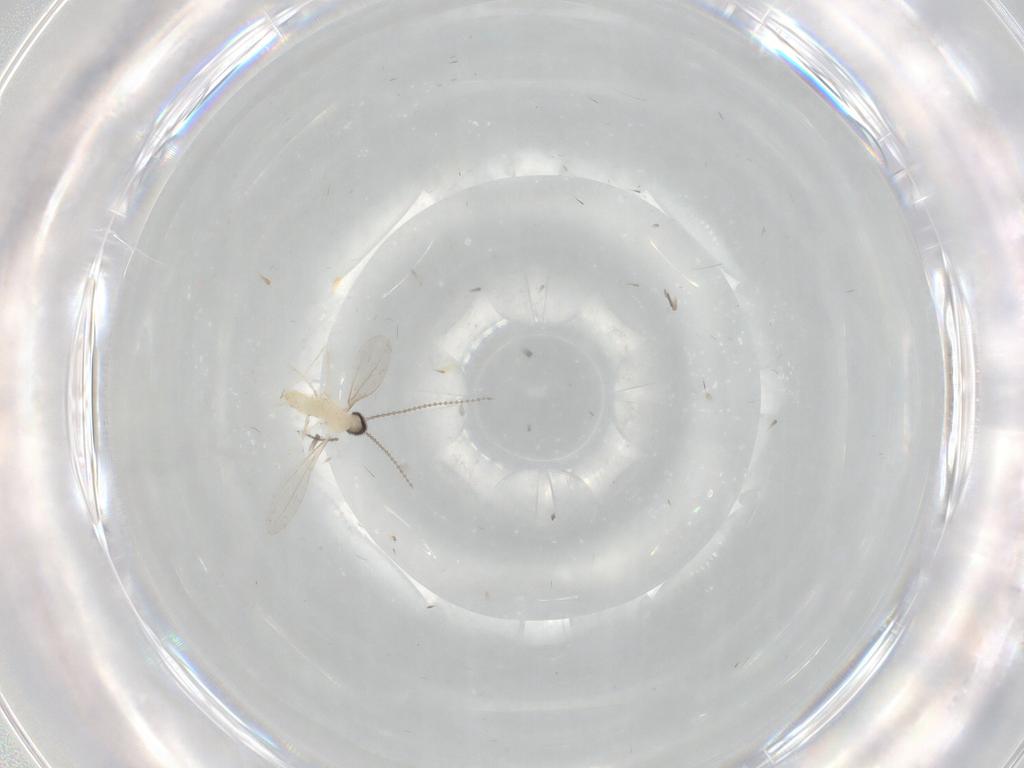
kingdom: Animalia
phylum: Arthropoda
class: Insecta
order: Diptera
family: Cecidomyiidae
